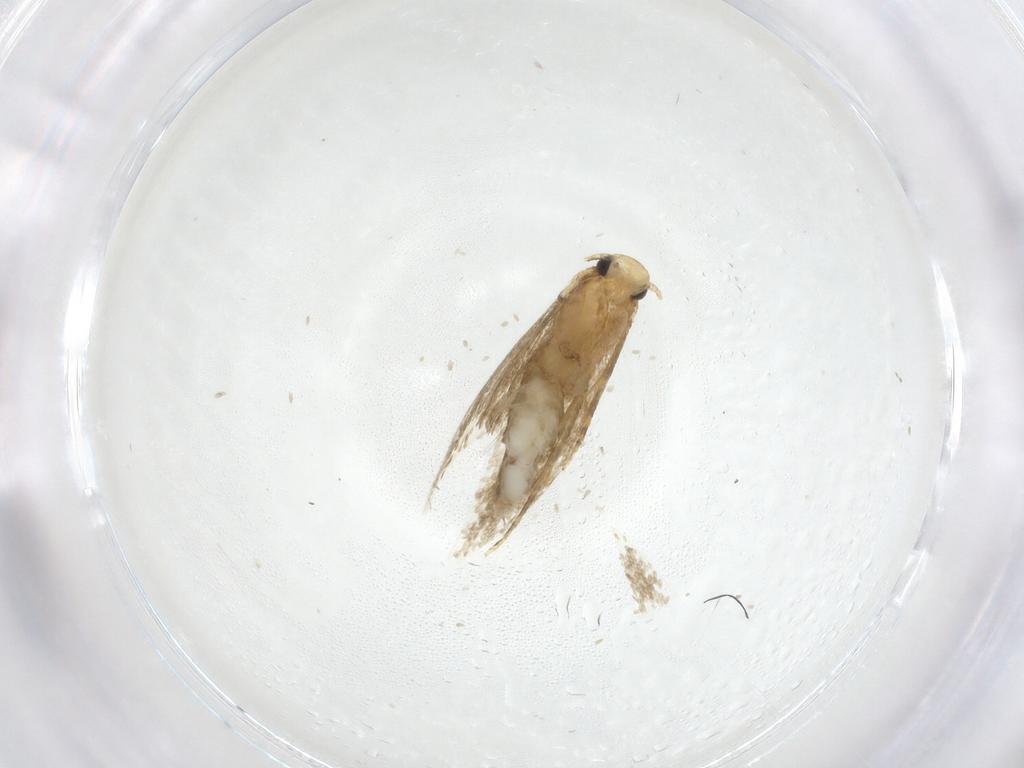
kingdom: Animalia
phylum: Arthropoda
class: Insecta
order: Lepidoptera
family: Tineidae
